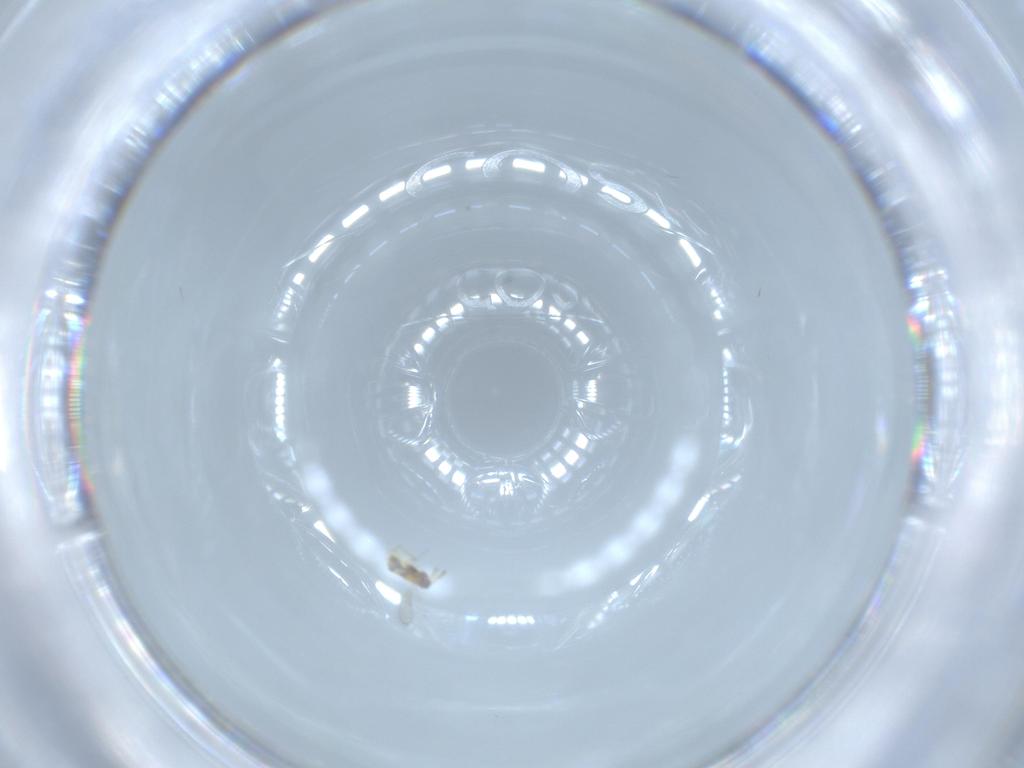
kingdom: Animalia
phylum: Arthropoda
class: Insecta
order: Hymenoptera
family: Aphelinidae
